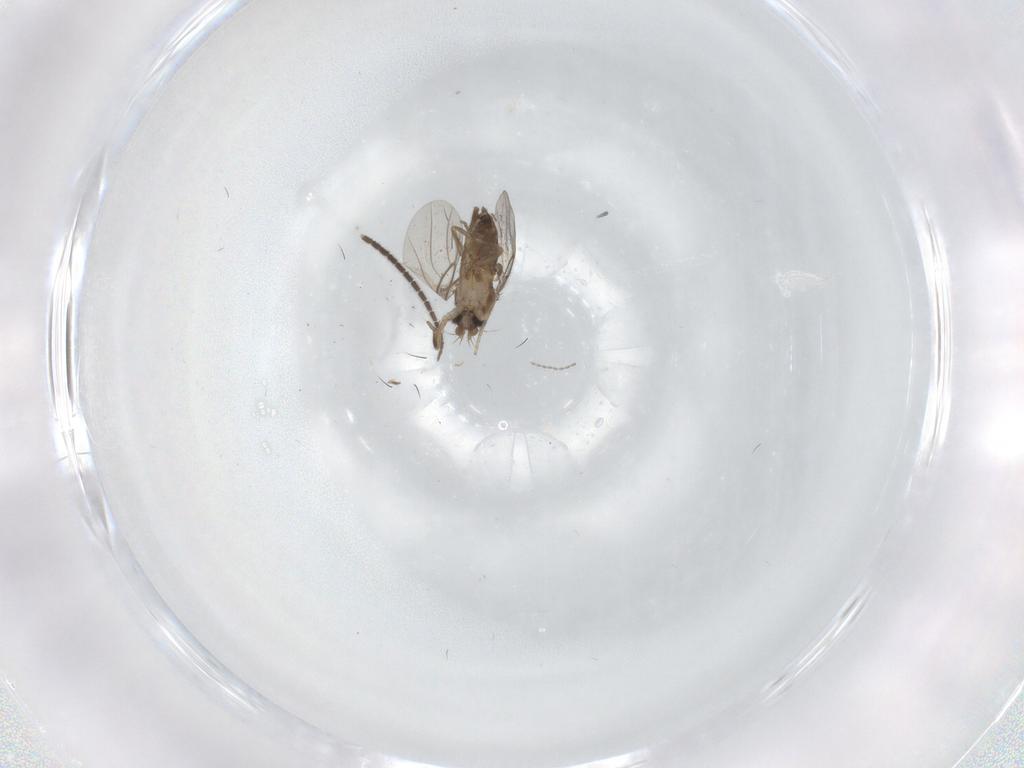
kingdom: Animalia
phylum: Arthropoda
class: Insecta
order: Diptera
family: Phoridae
